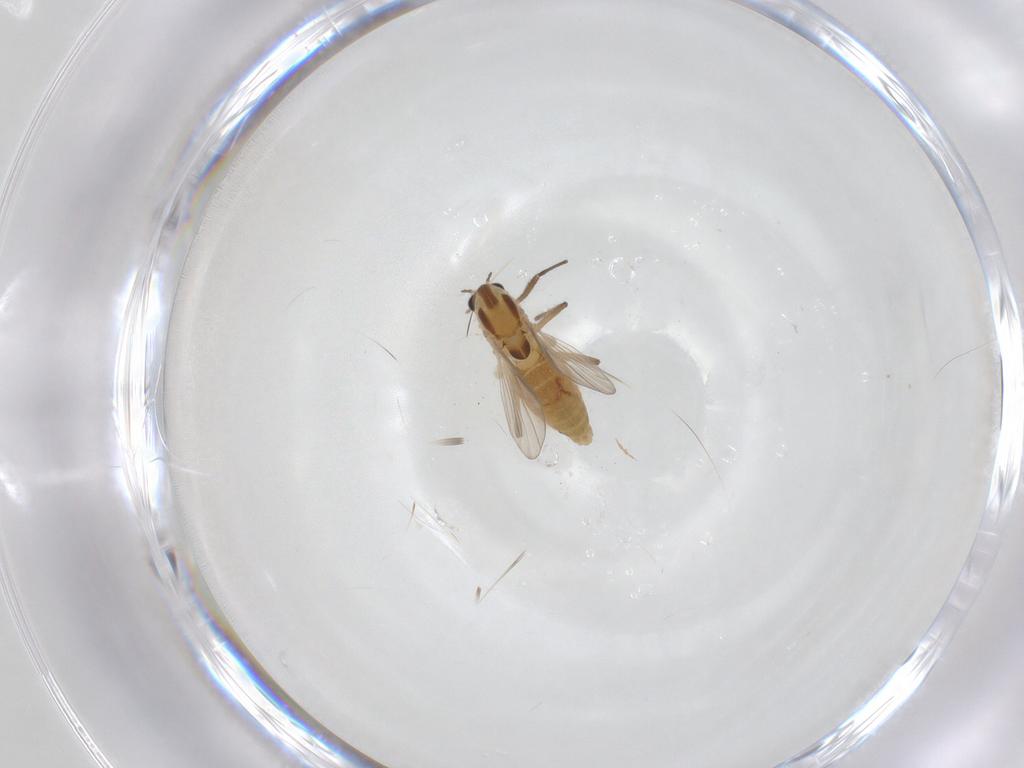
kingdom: Animalia
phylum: Arthropoda
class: Insecta
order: Diptera
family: Chironomidae
